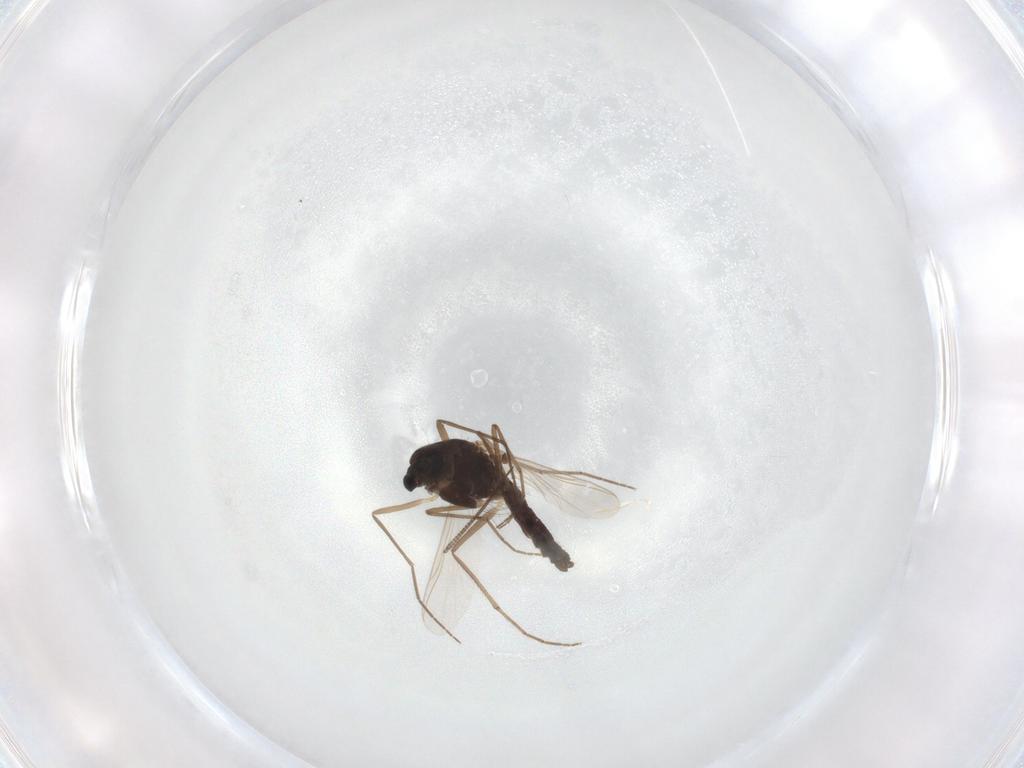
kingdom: Animalia
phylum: Arthropoda
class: Insecta
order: Diptera
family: Chironomidae
